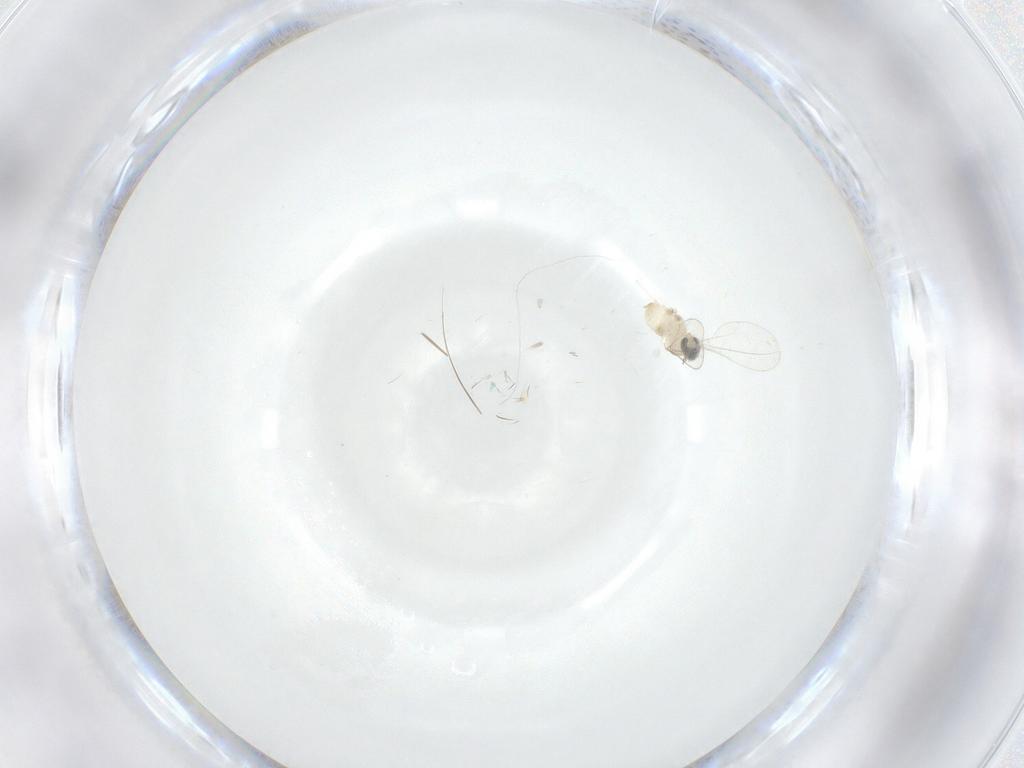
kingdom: Animalia
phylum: Arthropoda
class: Insecta
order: Diptera
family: Cecidomyiidae
